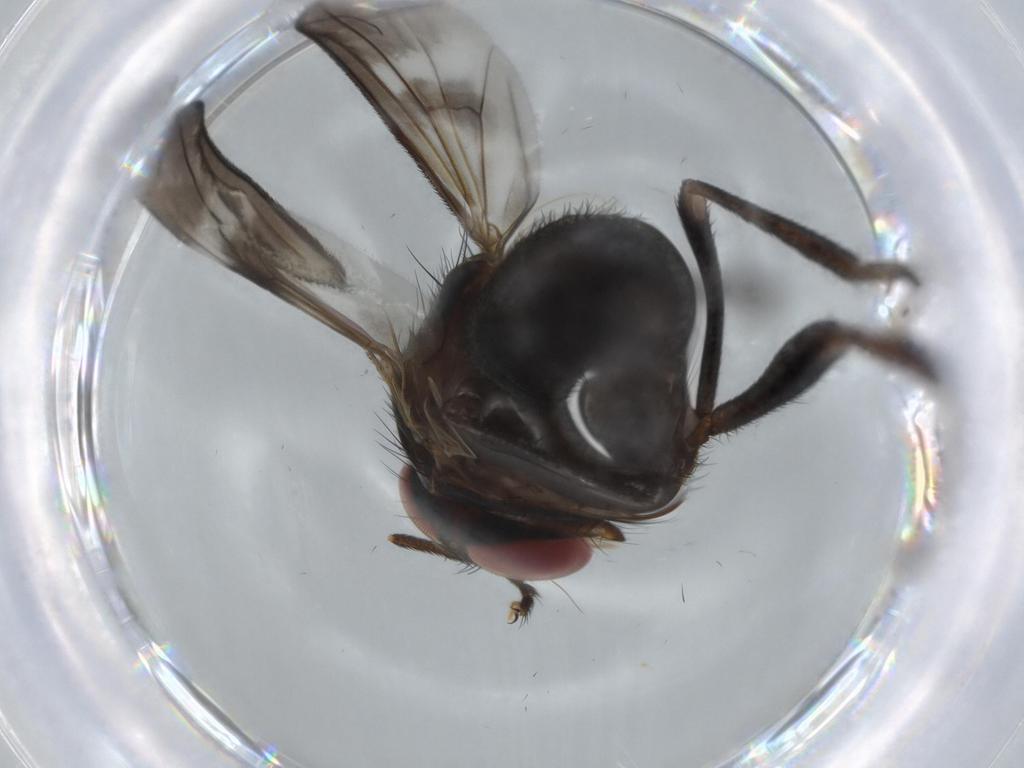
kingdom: Animalia
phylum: Arthropoda
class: Insecta
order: Diptera
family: Calliphoridae
